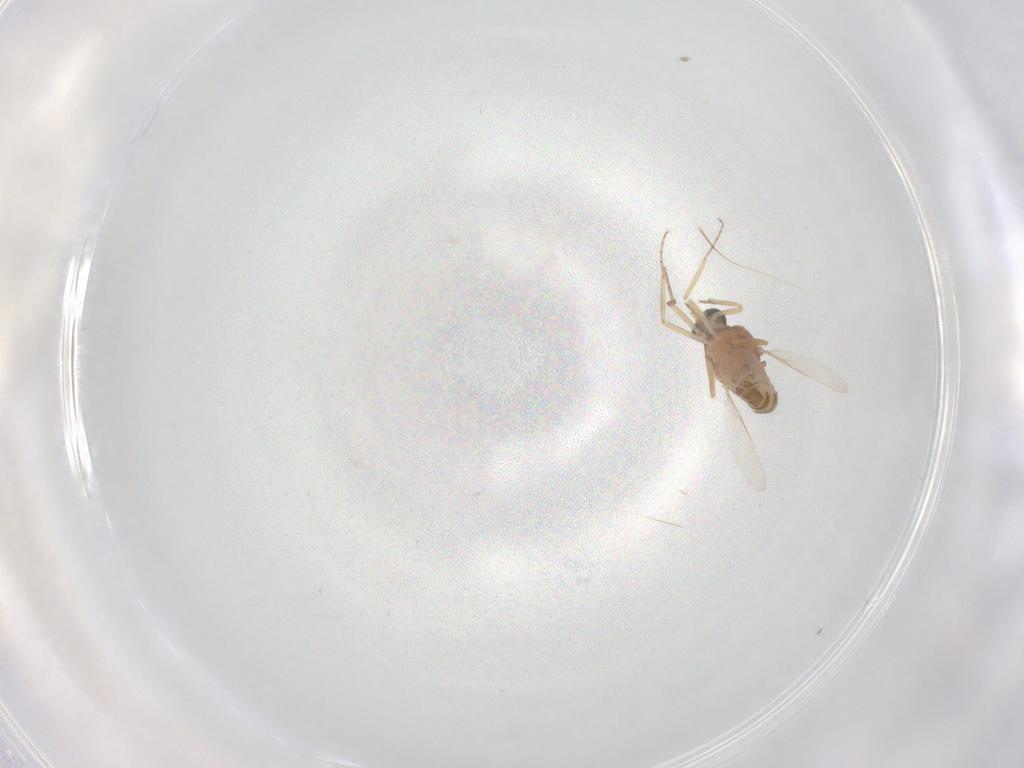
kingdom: Animalia
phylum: Arthropoda
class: Insecta
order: Diptera
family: Ceratopogonidae
